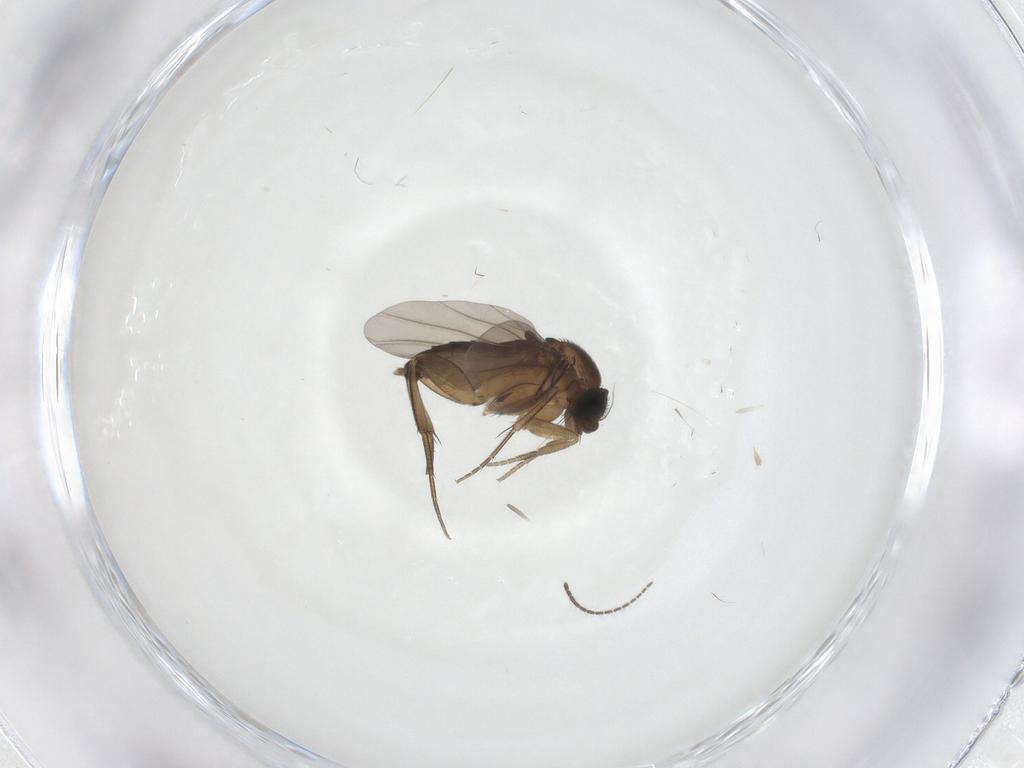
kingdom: Animalia
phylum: Arthropoda
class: Insecta
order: Diptera
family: Phoridae
